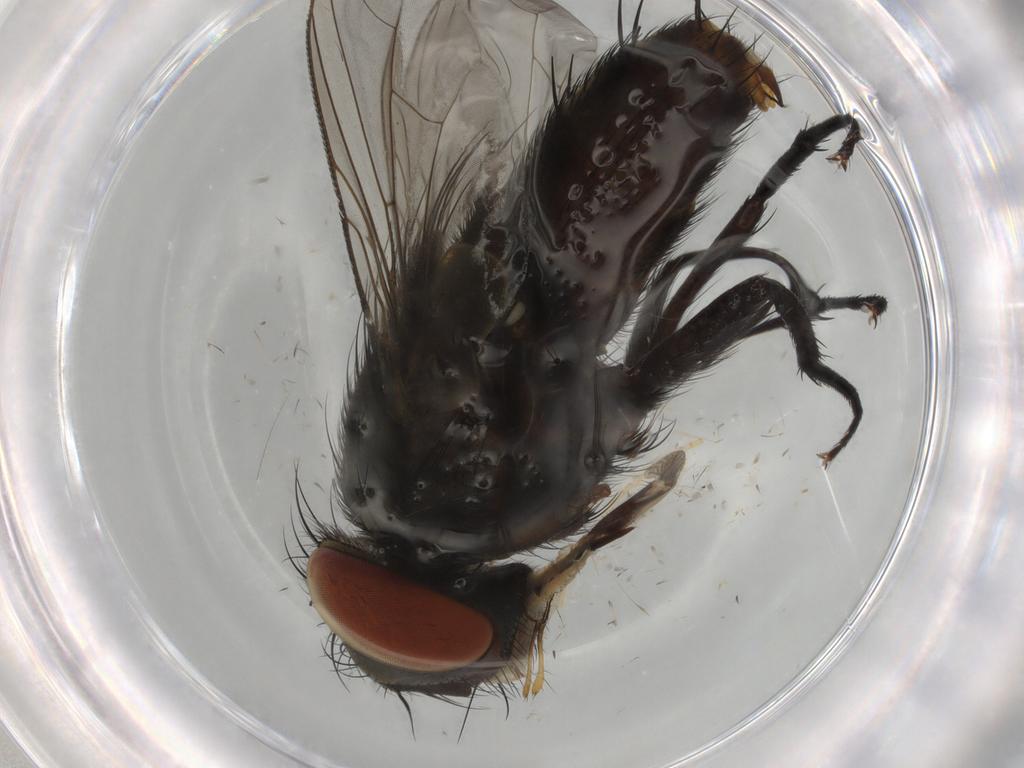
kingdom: Animalia
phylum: Arthropoda
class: Insecta
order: Diptera
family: Sarcophagidae
